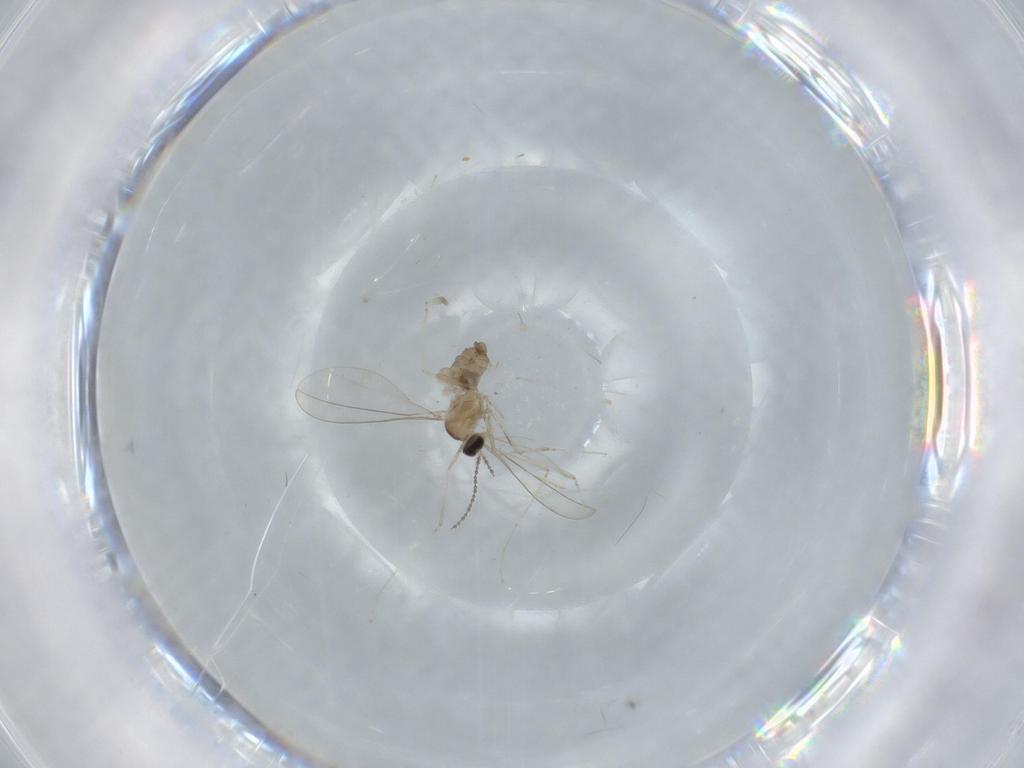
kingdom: Animalia
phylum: Arthropoda
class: Insecta
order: Diptera
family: Cecidomyiidae
